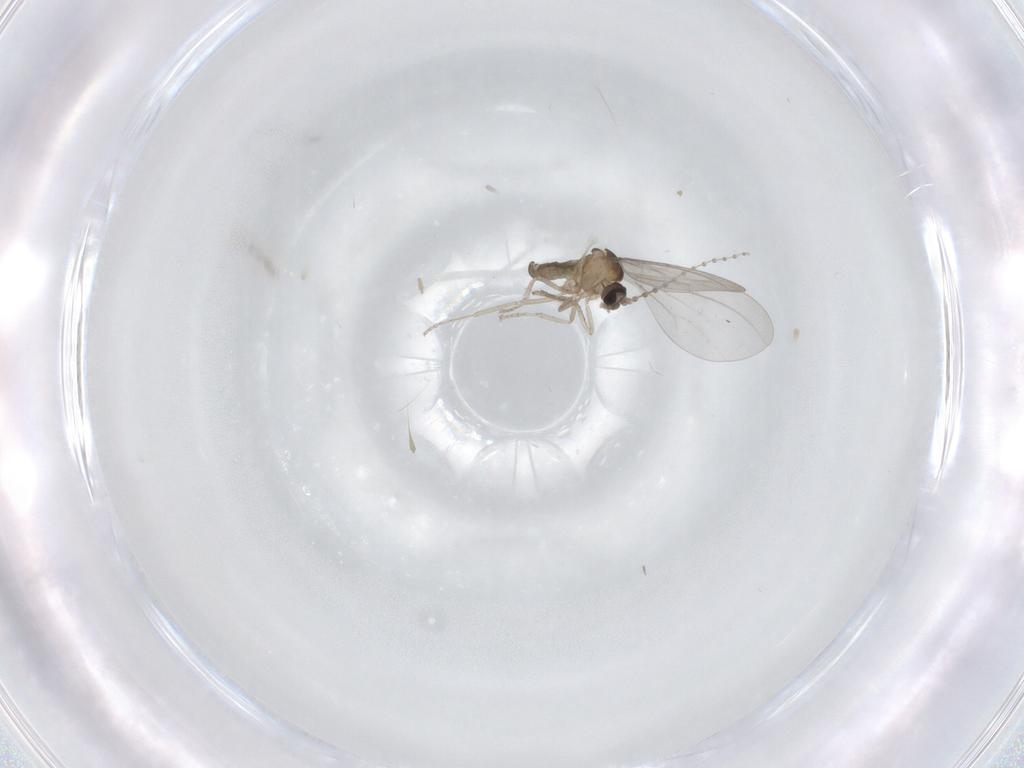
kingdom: Animalia
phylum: Arthropoda
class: Insecta
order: Diptera
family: Cecidomyiidae
